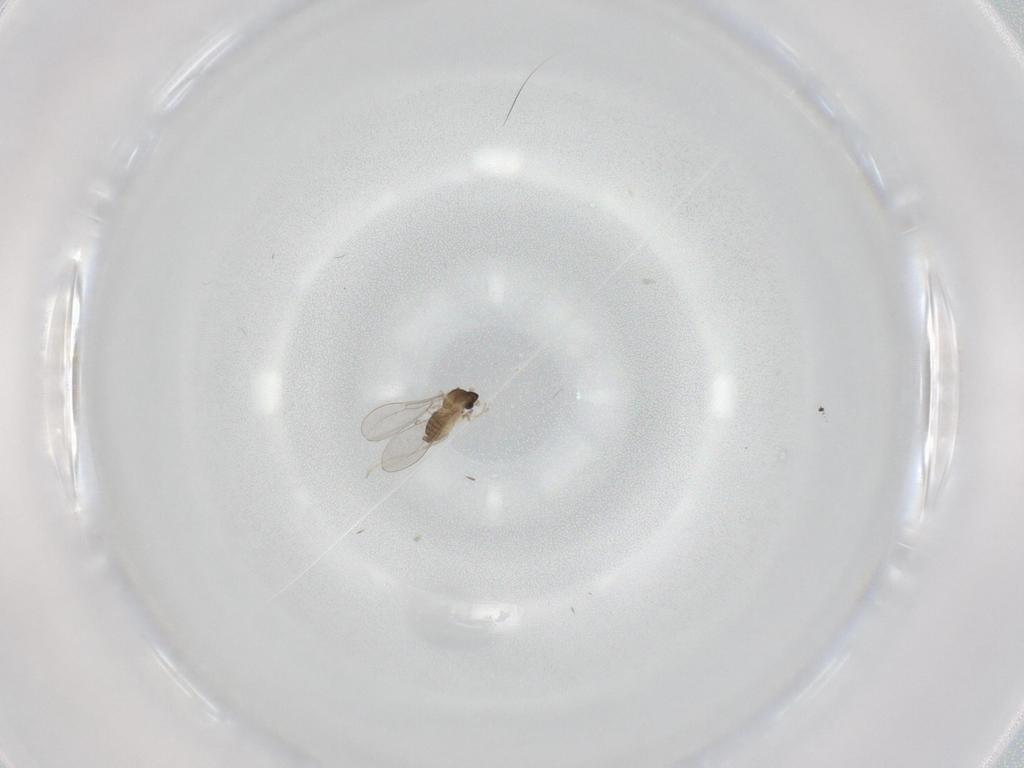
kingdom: Animalia
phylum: Arthropoda
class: Insecta
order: Diptera
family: Cecidomyiidae
